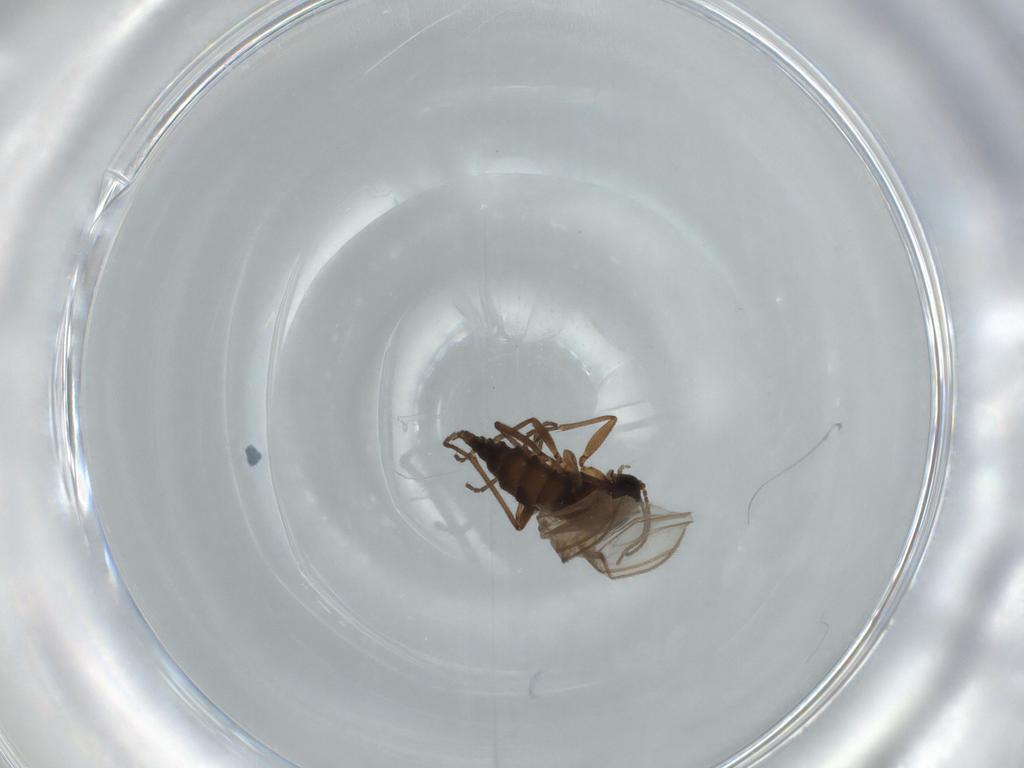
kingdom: Animalia
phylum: Arthropoda
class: Insecta
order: Diptera
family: Sciaridae
